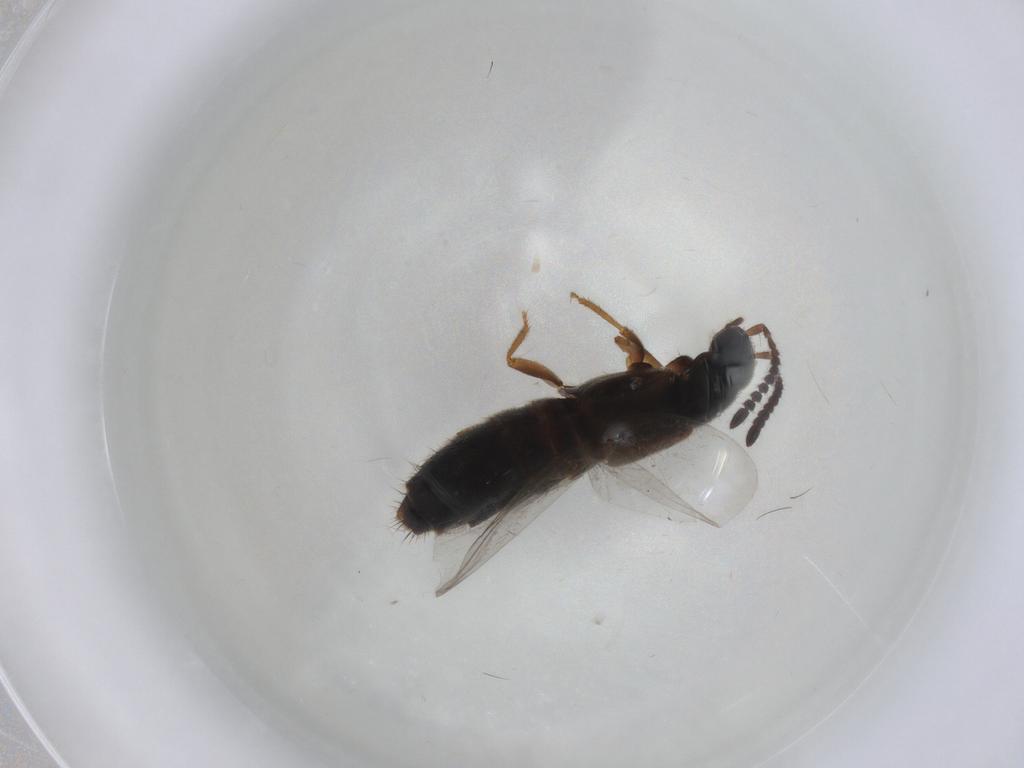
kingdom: Animalia
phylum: Arthropoda
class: Insecta
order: Coleoptera
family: Staphylinidae
